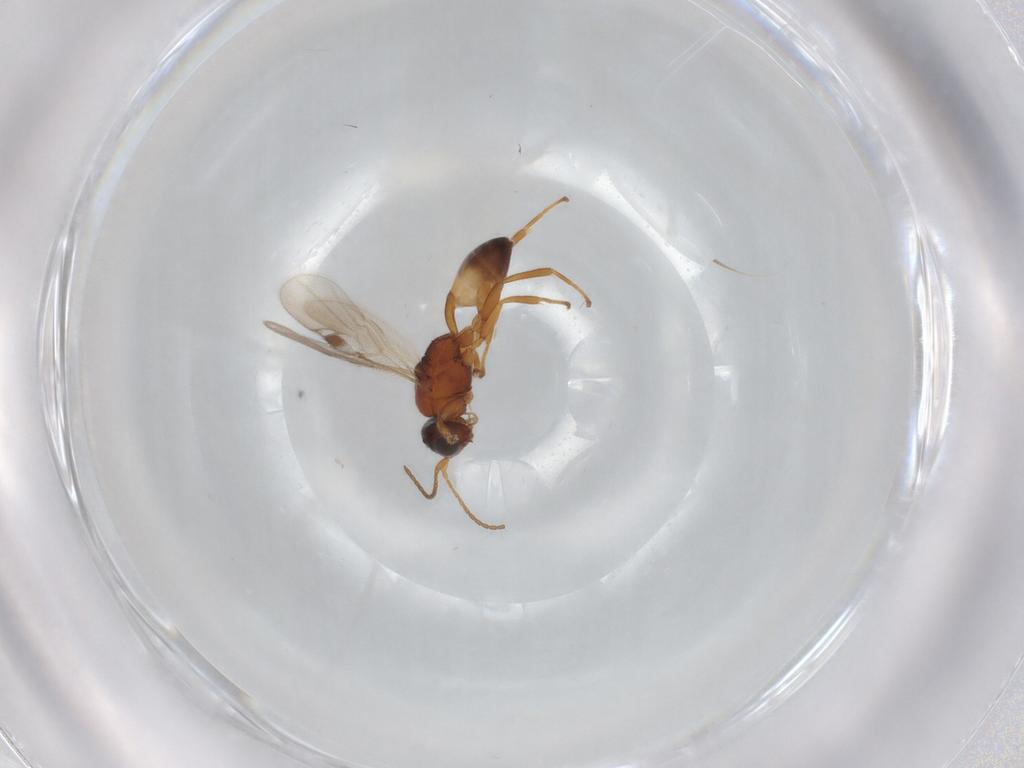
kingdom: Animalia
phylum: Arthropoda
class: Insecta
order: Hymenoptera
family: Braconidae
